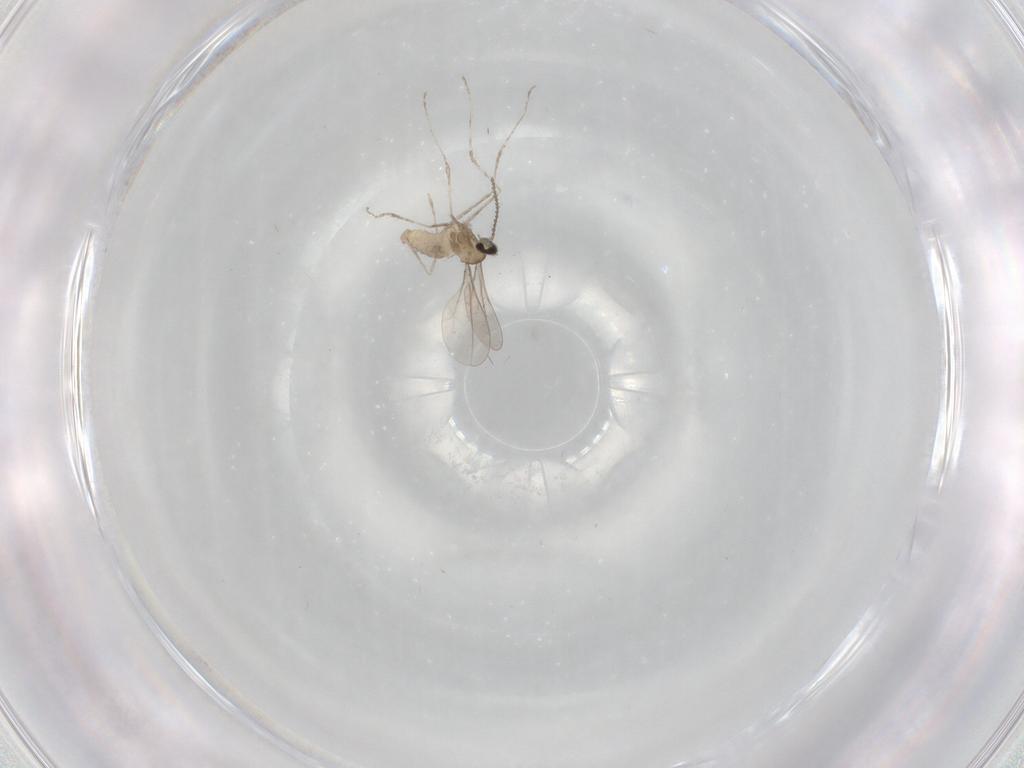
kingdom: Animalia
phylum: Arthropoda
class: Insecta
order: Diptera
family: Cecidomyiidae
